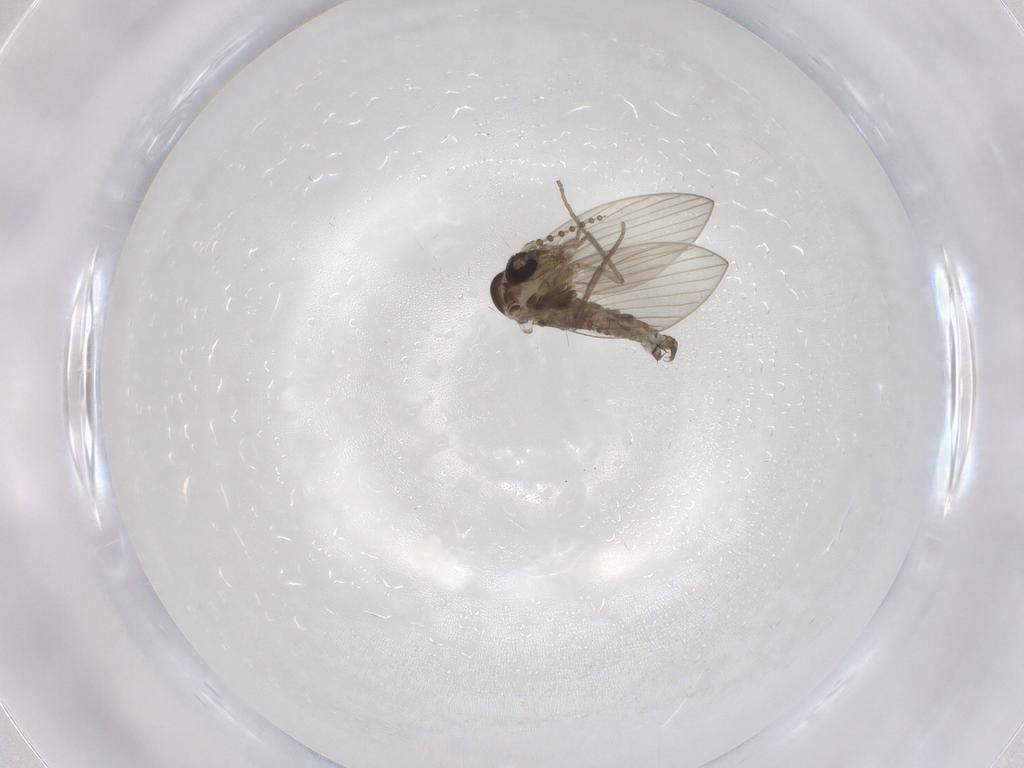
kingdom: Animalia
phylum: Arthropoda
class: Insecta
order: Diptera
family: Psychodidae
